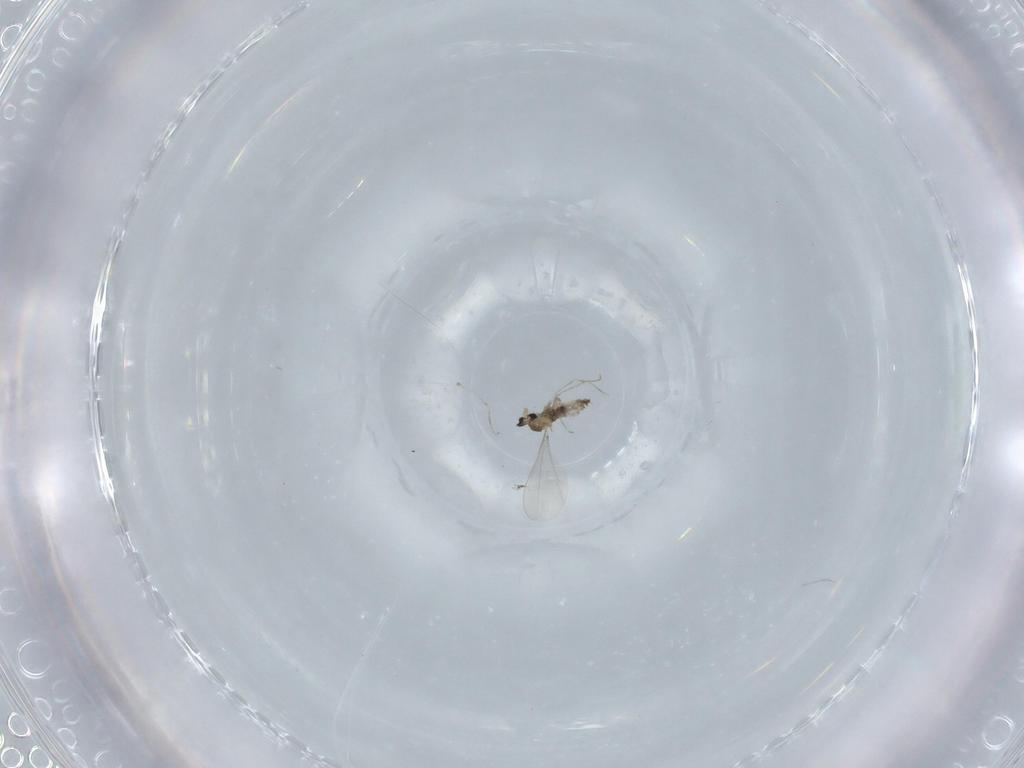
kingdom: Animalia
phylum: Arthropoda
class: Insecta
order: Diptera
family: Cecidomyiidae
